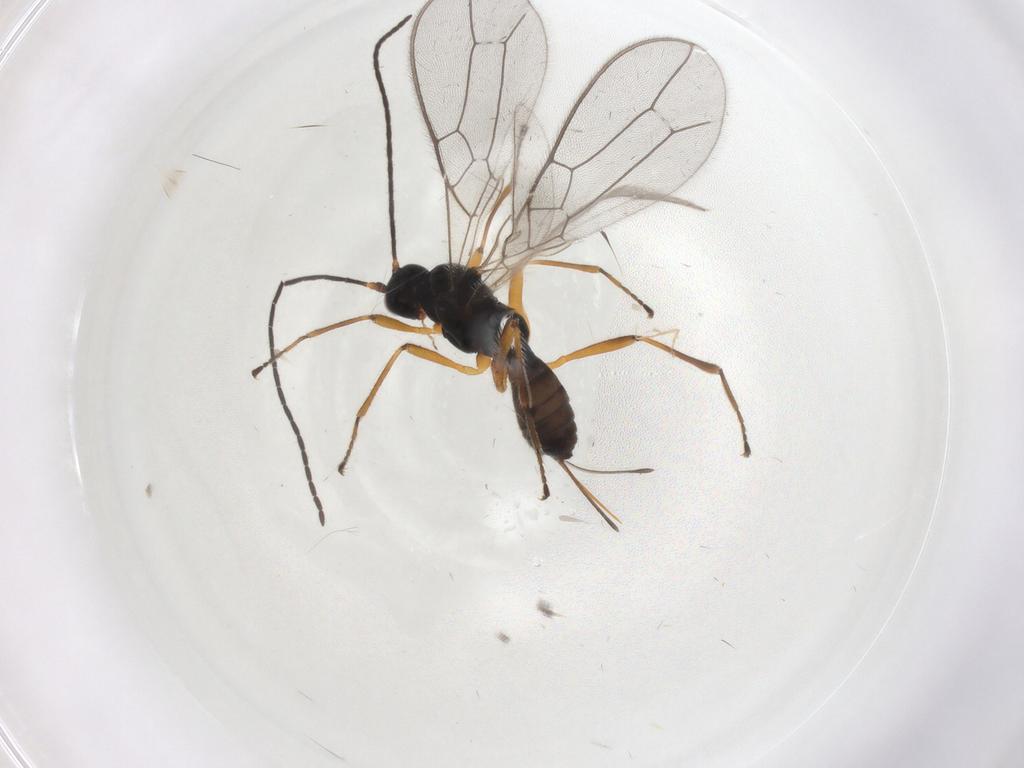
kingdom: Animalia
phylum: Arthropoda
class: Insecta
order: Hymenoptera
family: Braconidae
